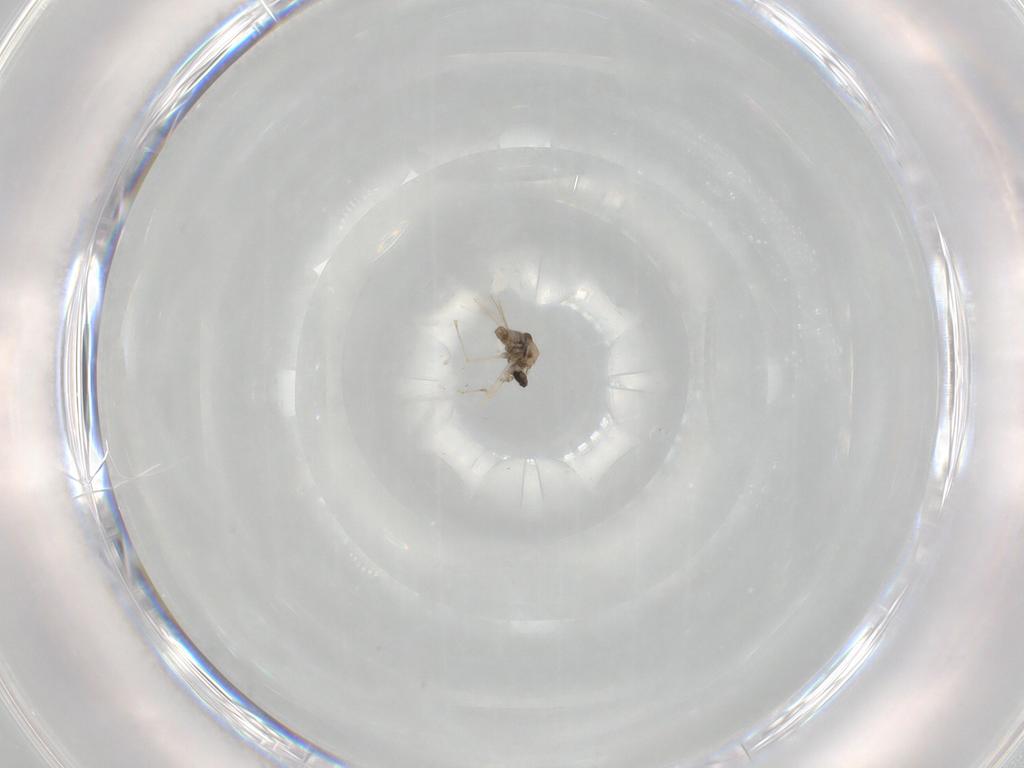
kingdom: Animalia
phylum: Arthropoda
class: Insecta
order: Diptera
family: Cecidomyiidae
